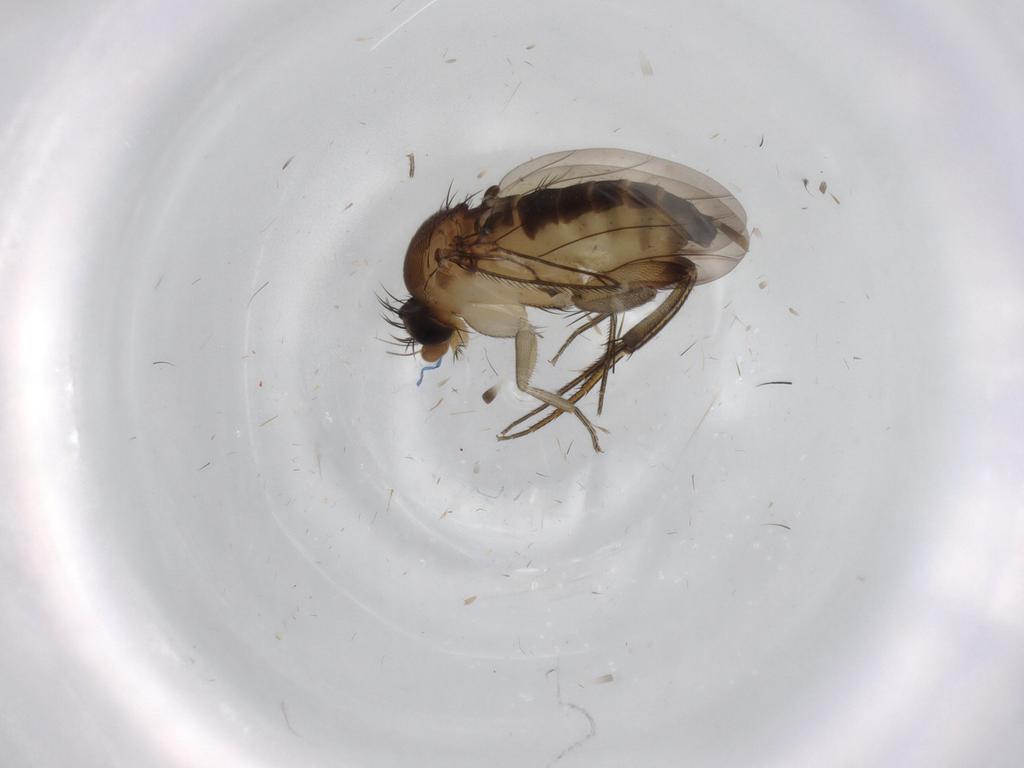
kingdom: Animalia
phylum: Arthropoda
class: Insecta
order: Diptera
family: Phoridae
